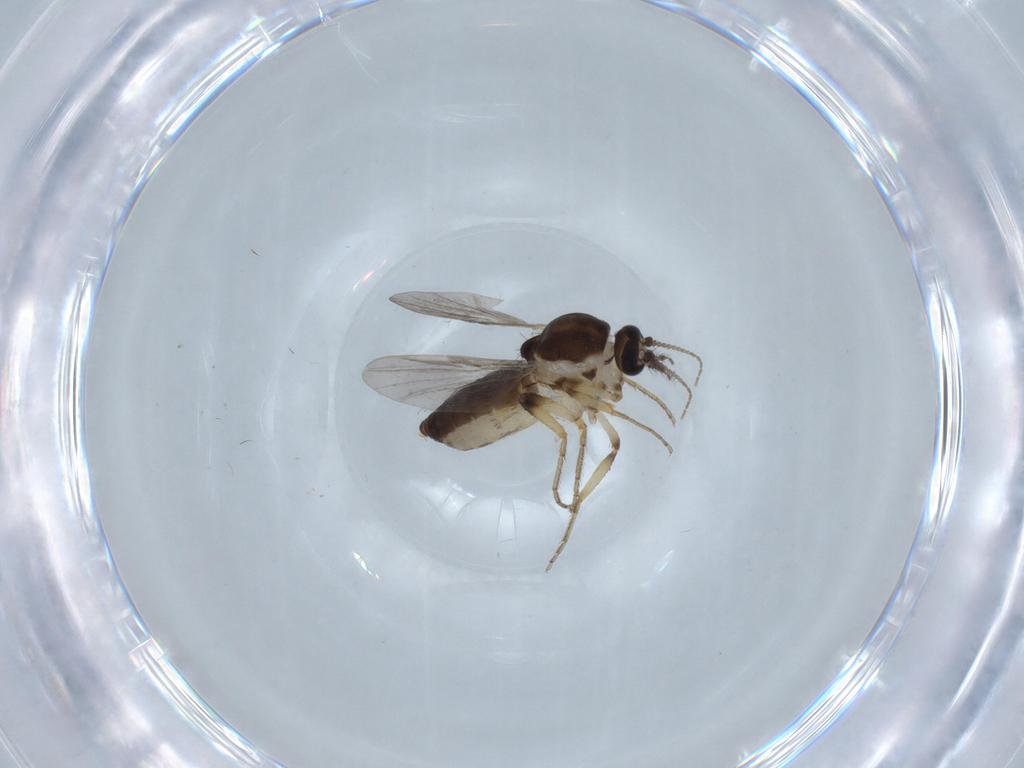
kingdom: Animalia
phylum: Arthropoda
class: Insecta
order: Diptera
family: Ceratopogonidae
